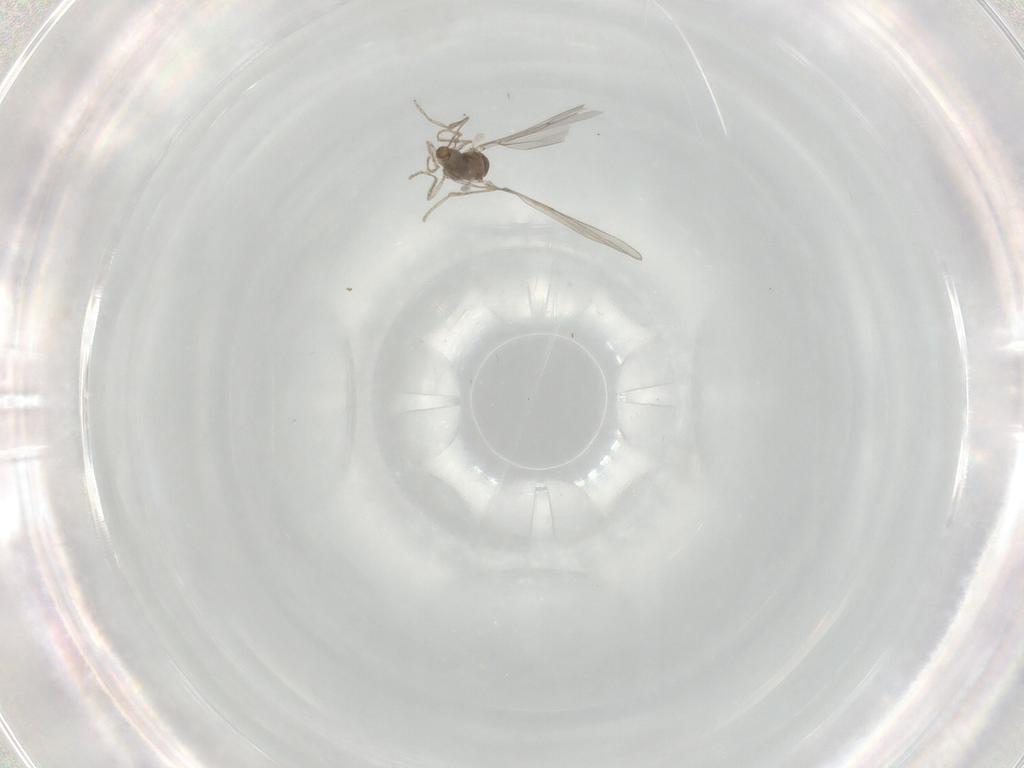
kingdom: Animalia
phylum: Arthropoda
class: Insecta
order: Diptera
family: Cecidomyiidae
